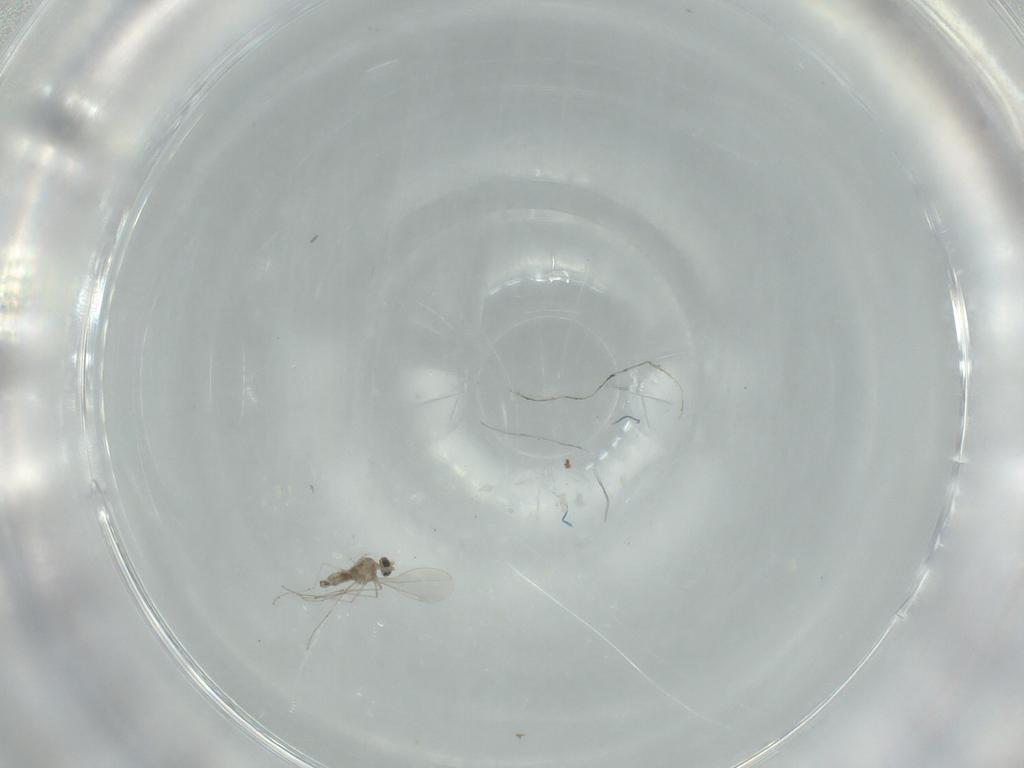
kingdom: Animalia
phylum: Arthropoda
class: Insecta
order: Diptera
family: Cecidomyiidae
